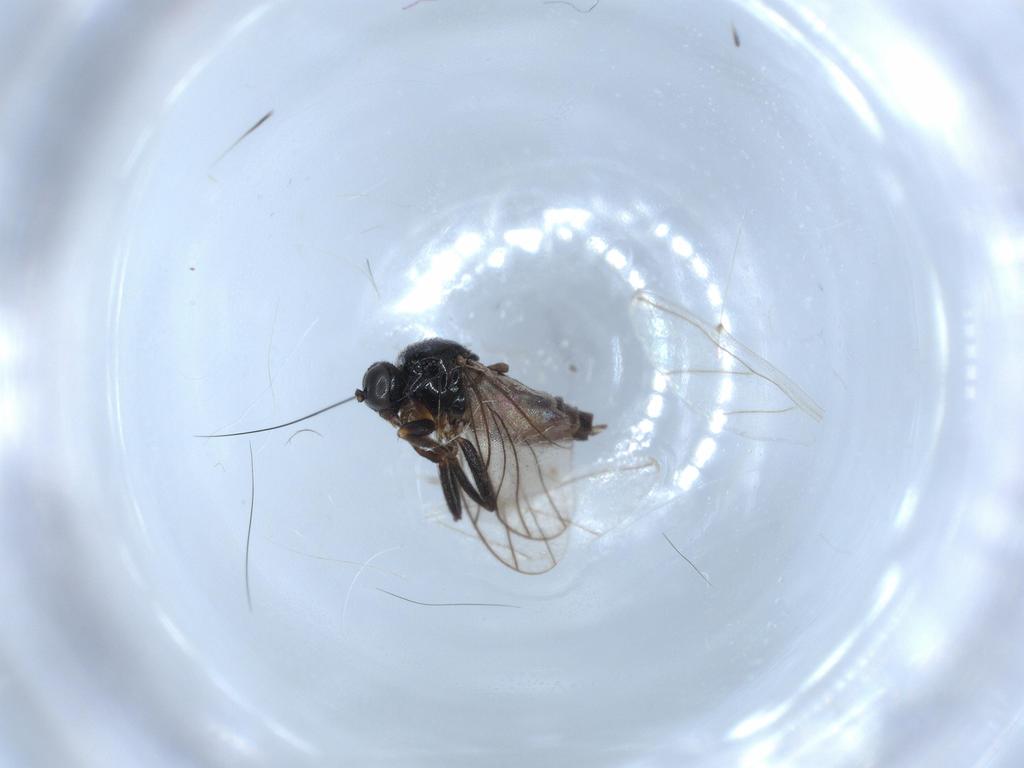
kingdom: Animalia
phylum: Arthropoda
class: Insecta
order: Diptera
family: Hybotidae
